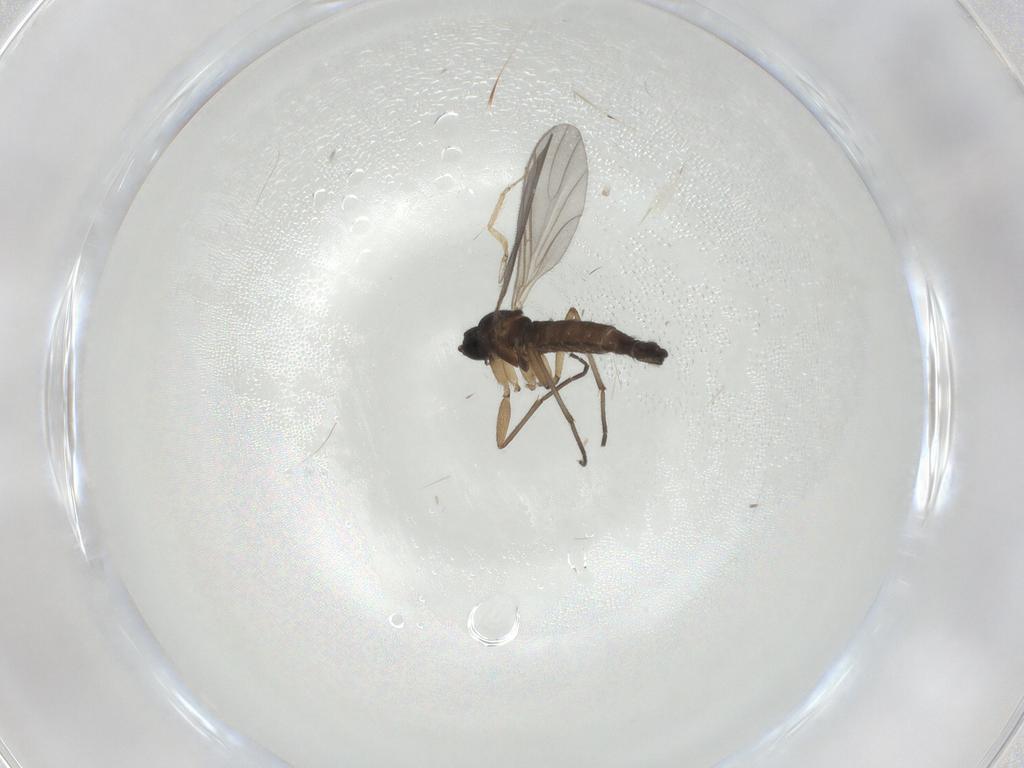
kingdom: Animalia
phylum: Arthropoda
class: Insecta
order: Diptera
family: Sciaridae
